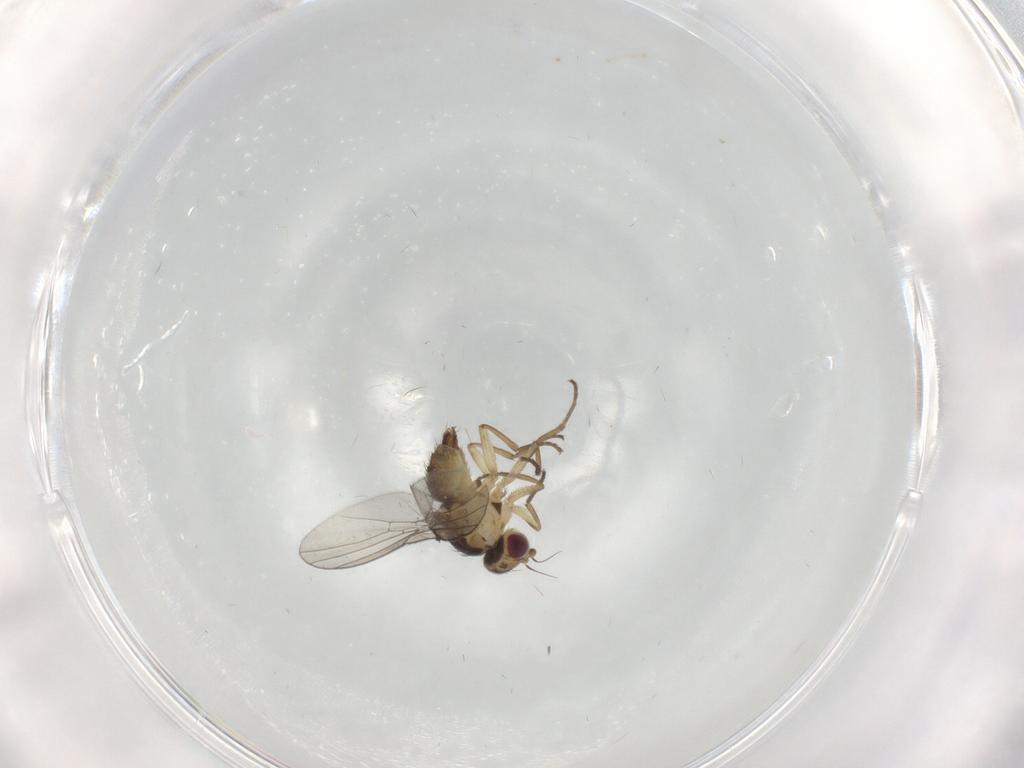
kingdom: Animalia
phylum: Arthropoda
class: Insecta
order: Diptera
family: Agromyzidae
